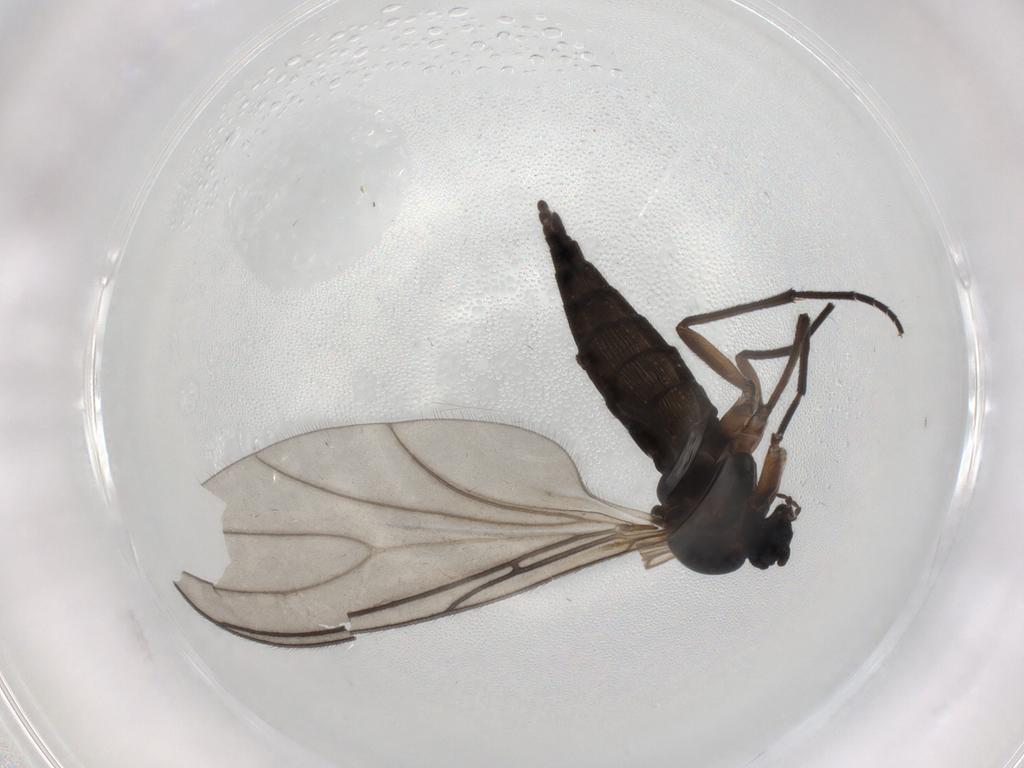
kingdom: Animalia
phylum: Arthropoda
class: Insecta
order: Diptera
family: Sciaridae
